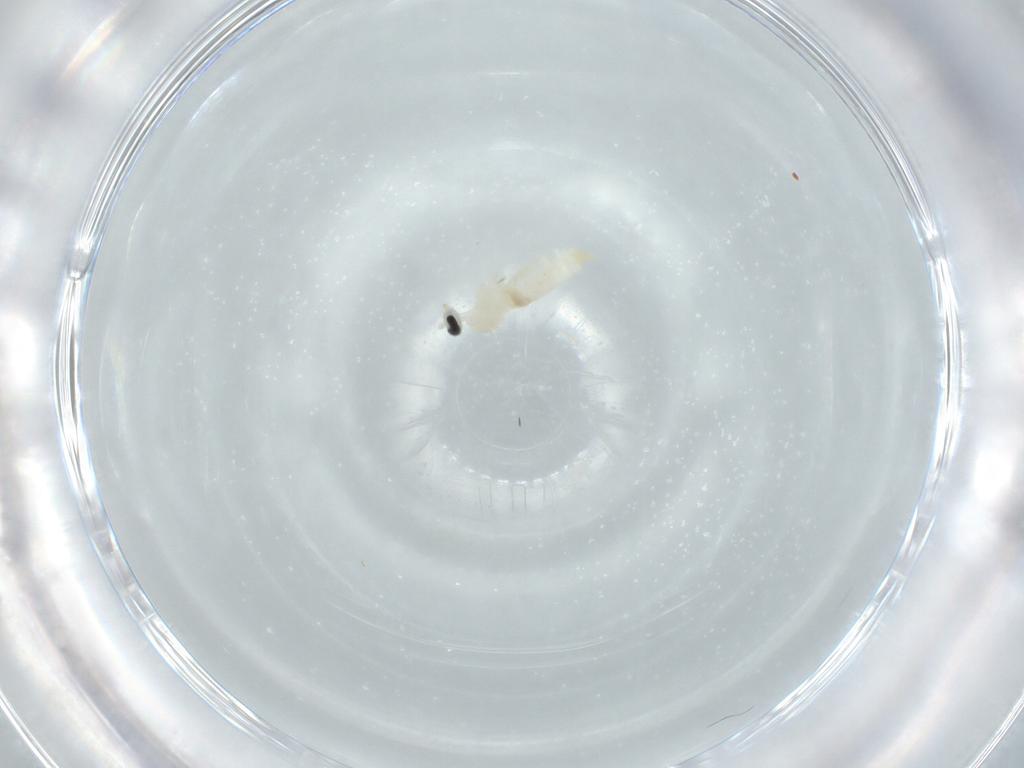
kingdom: Animalia
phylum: Arthropoda
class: Insecta
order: Diptera
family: Cecidomyiidae
